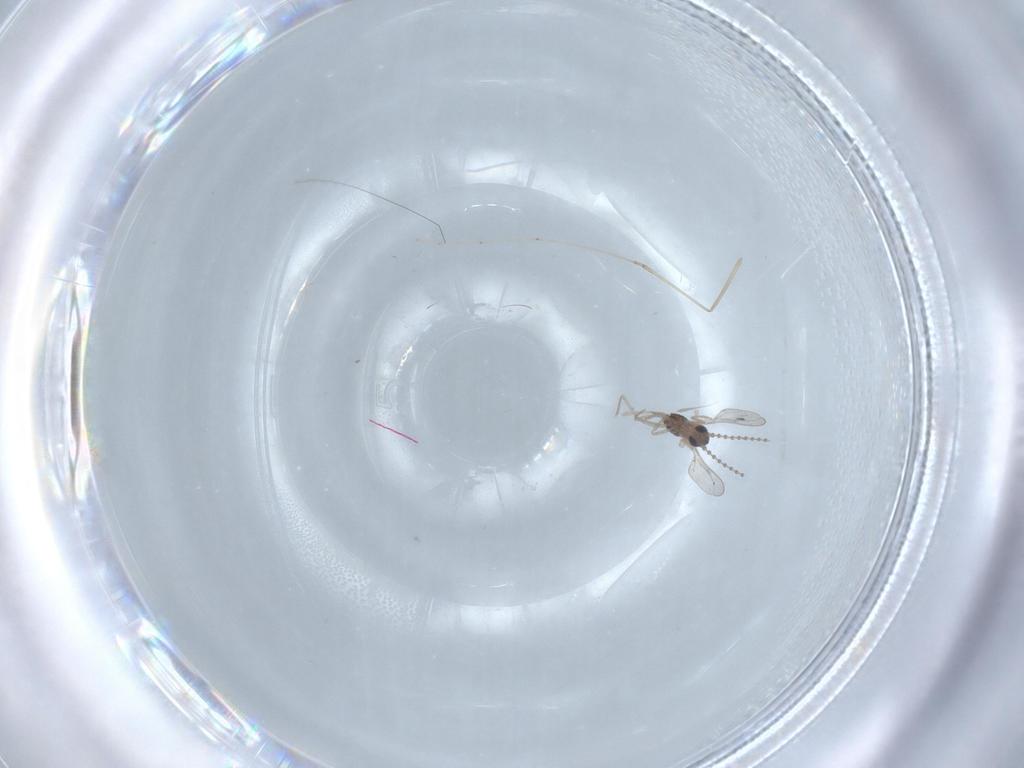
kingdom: Animalia
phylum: Arthropoda
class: Insecta
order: Diptera
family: Cecidomyiidae
